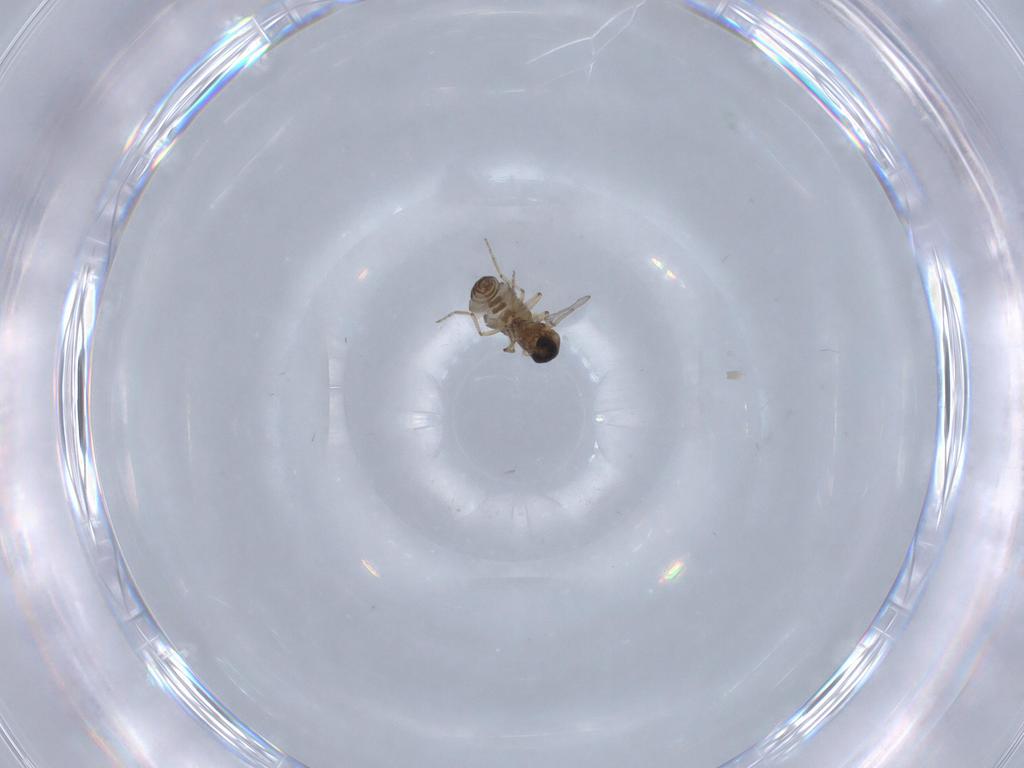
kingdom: Animalia
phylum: Arthropoda
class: Insecta
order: Diptera
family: Ceratopogonidae
